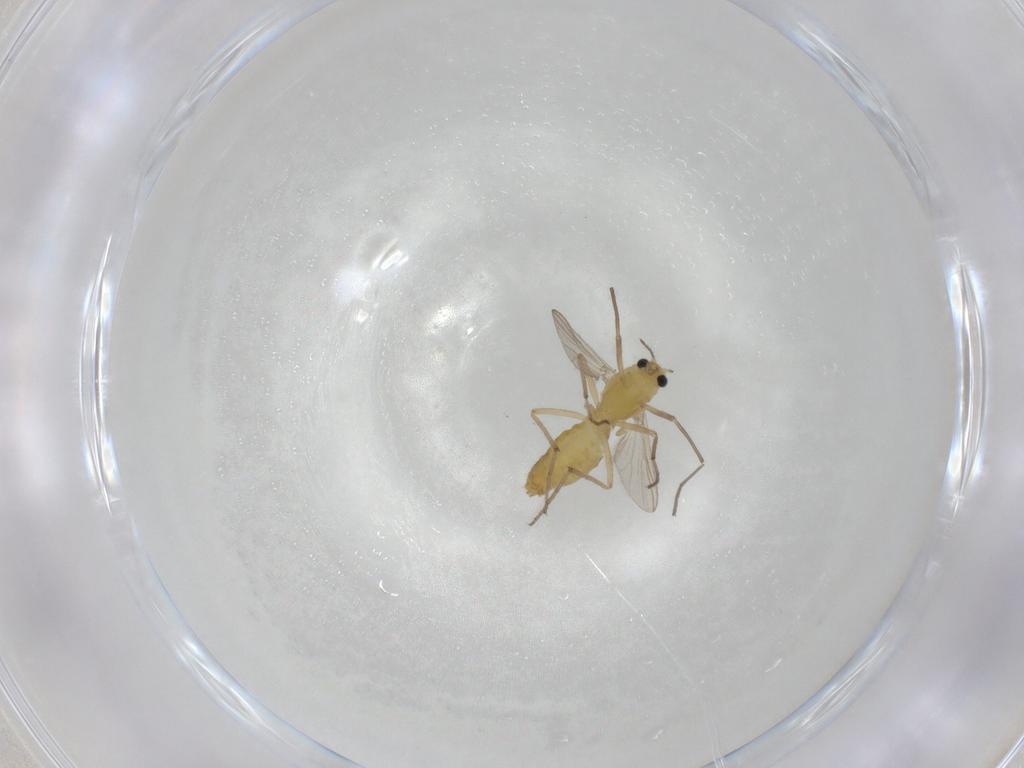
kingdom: Animalia
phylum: Arthropoda
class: Insecta
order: Diptera
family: Chironomidae
